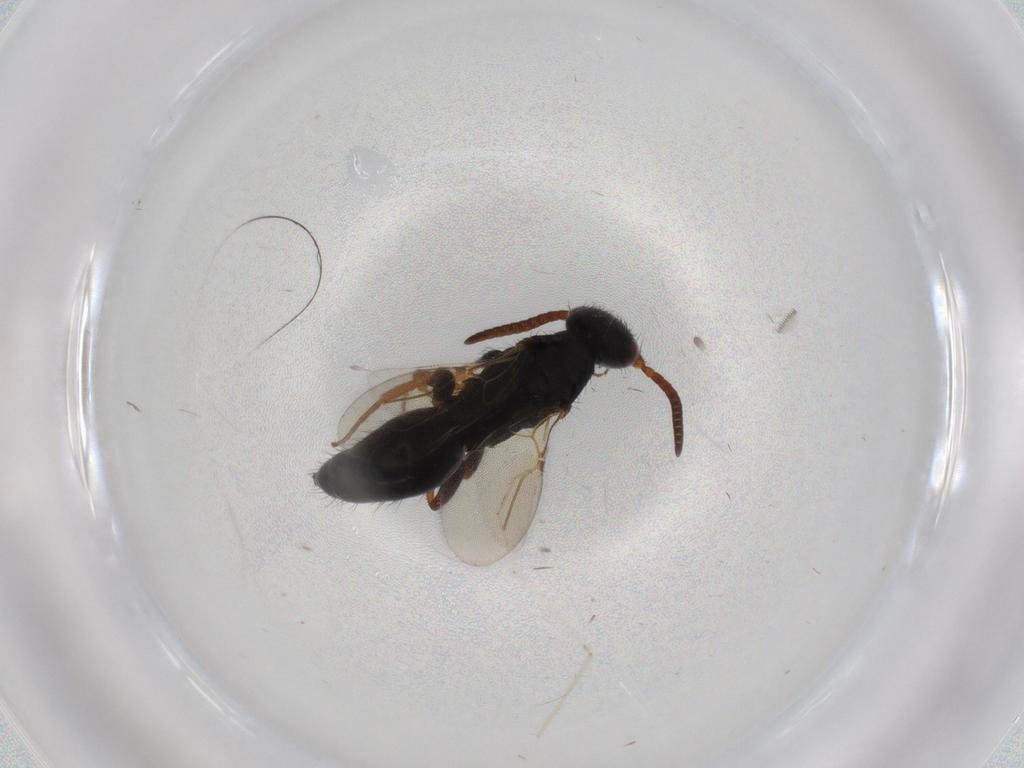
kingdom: Animalia
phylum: Arthropoda
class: Insecta
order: Hymenoptera
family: Bethylidae
